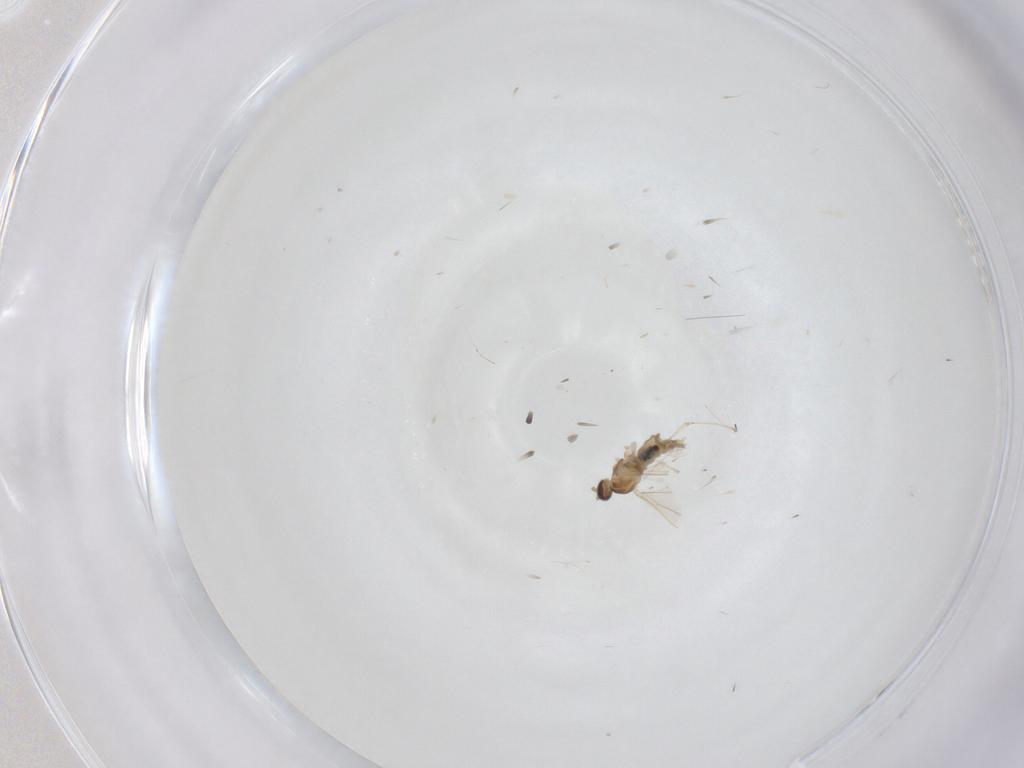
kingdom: Animalia
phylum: Arthropoda
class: Insecta
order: Diptera
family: Cecidomyiidae
